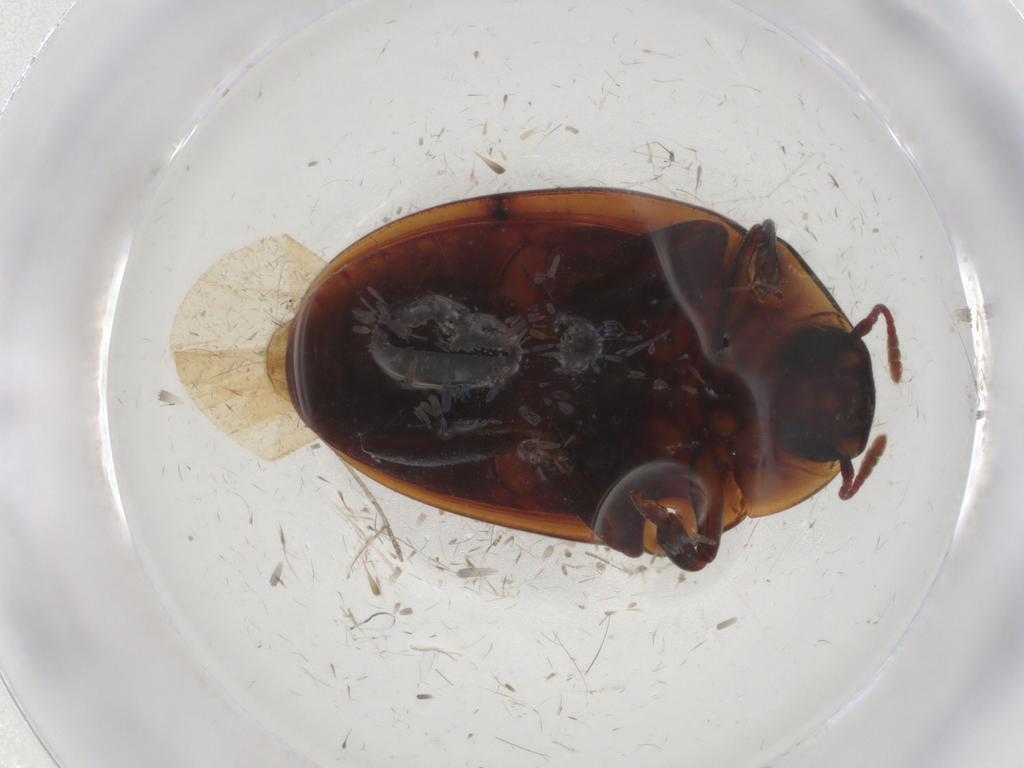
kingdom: Animalia
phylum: Arthropoda
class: Insecta
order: Coleoptera
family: Zopheridae
